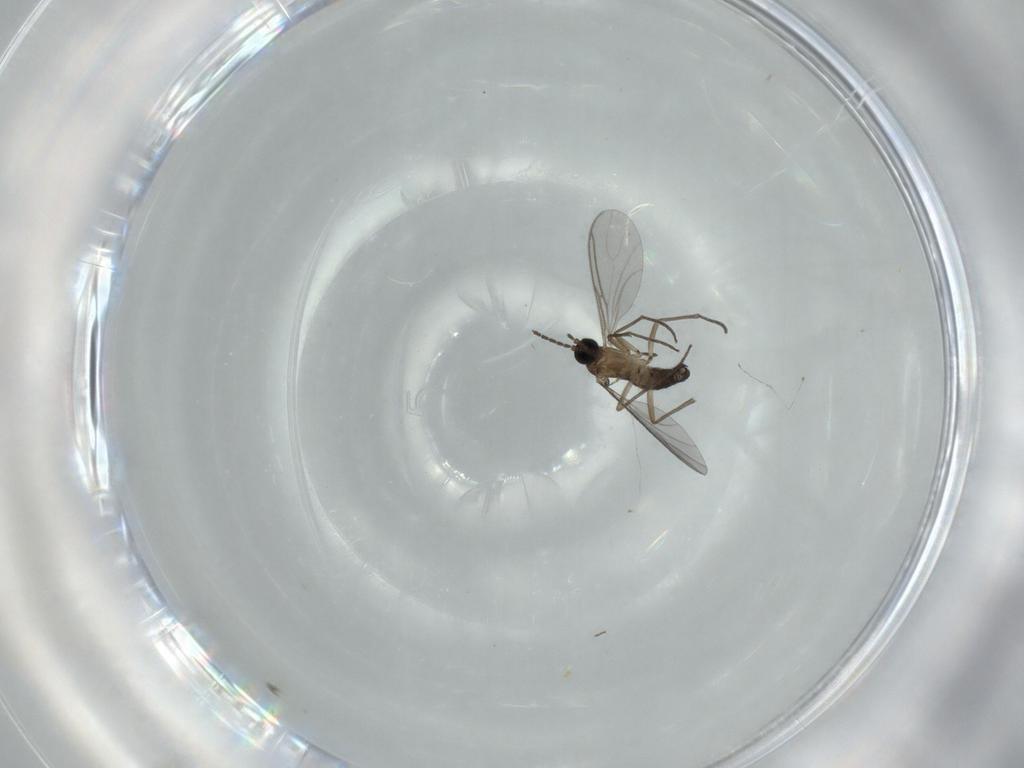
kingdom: Animalia
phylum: Arthropoda
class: Insecta
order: Diptera
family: Sciaridae
